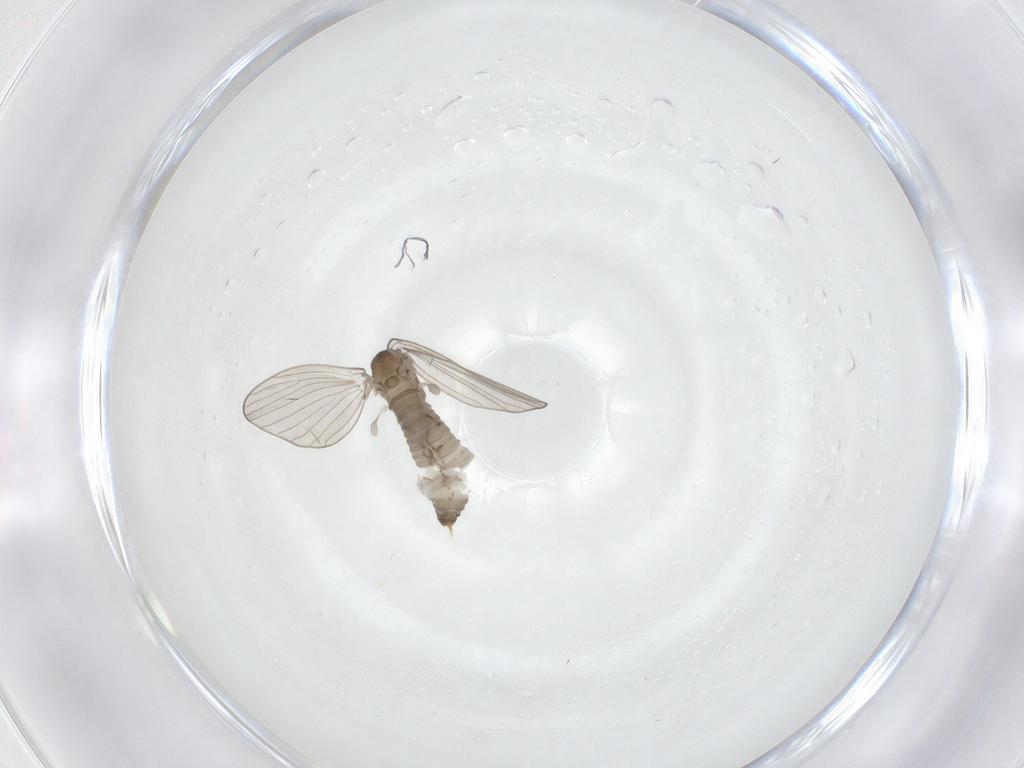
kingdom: Animalia
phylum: Arthropoda
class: Insecta
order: Diptera
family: Psychodidae
